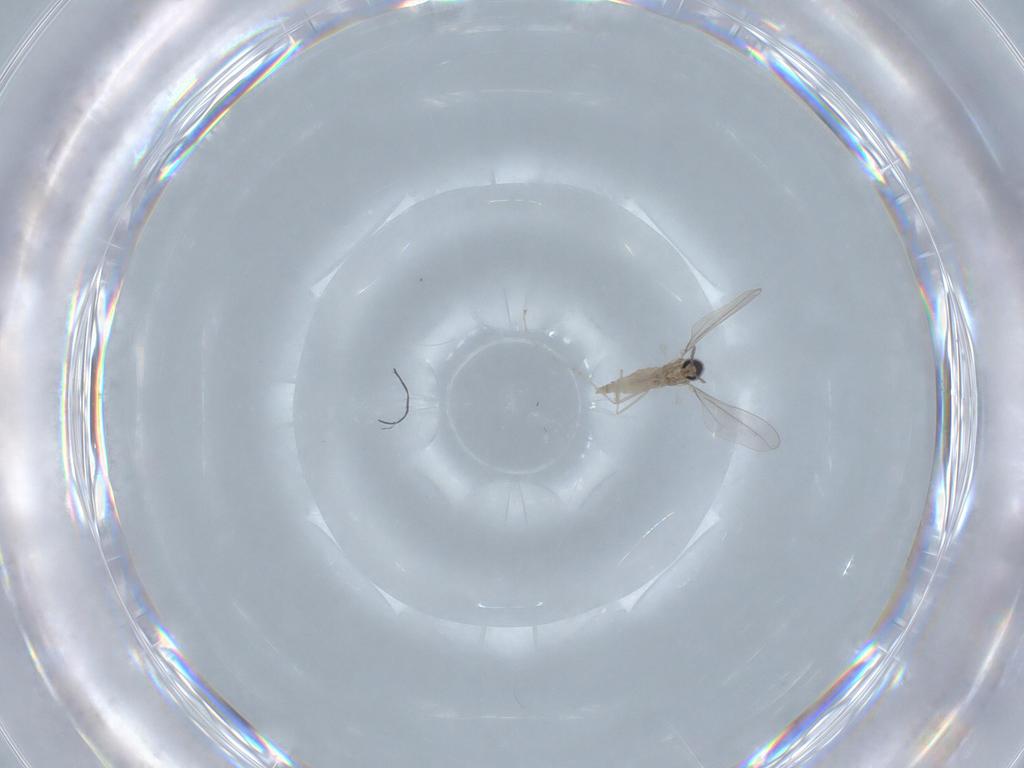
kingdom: Animalia
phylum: Arthropoda
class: Insecta
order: Diptera
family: Cecidomyiidae
